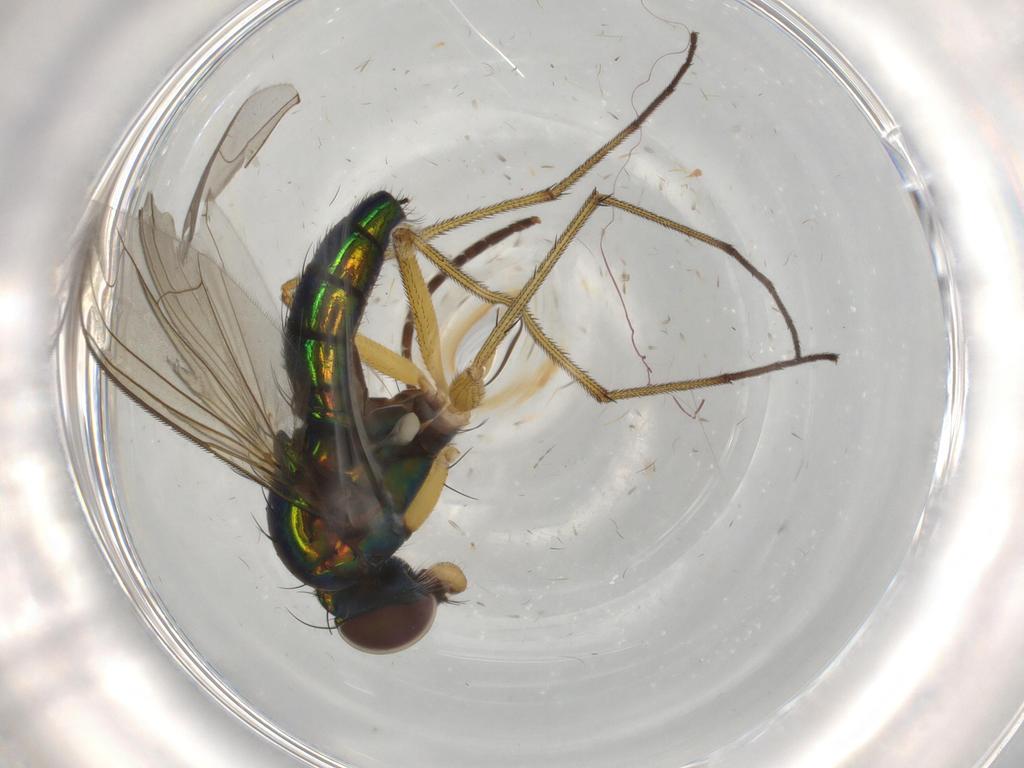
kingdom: Animalia
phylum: Arthropoda
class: Insecta
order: Diptera
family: Dolichopodidae
